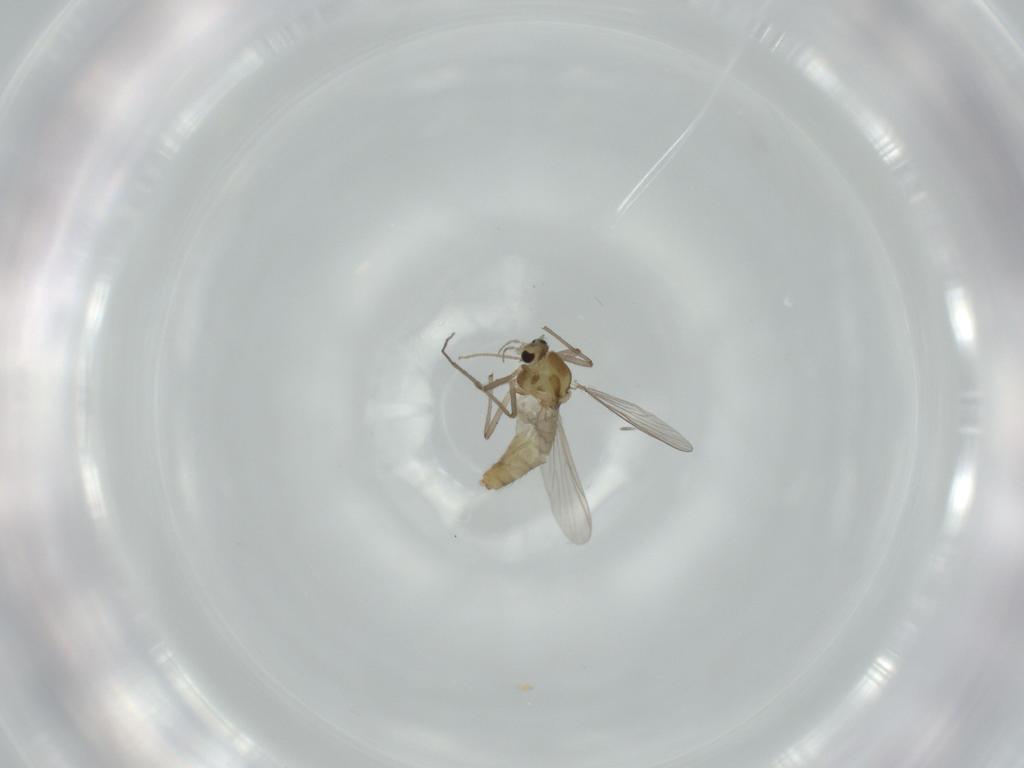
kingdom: Animalia
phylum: Arthropoda
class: Insecta
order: Diptera
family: Chironomidae
